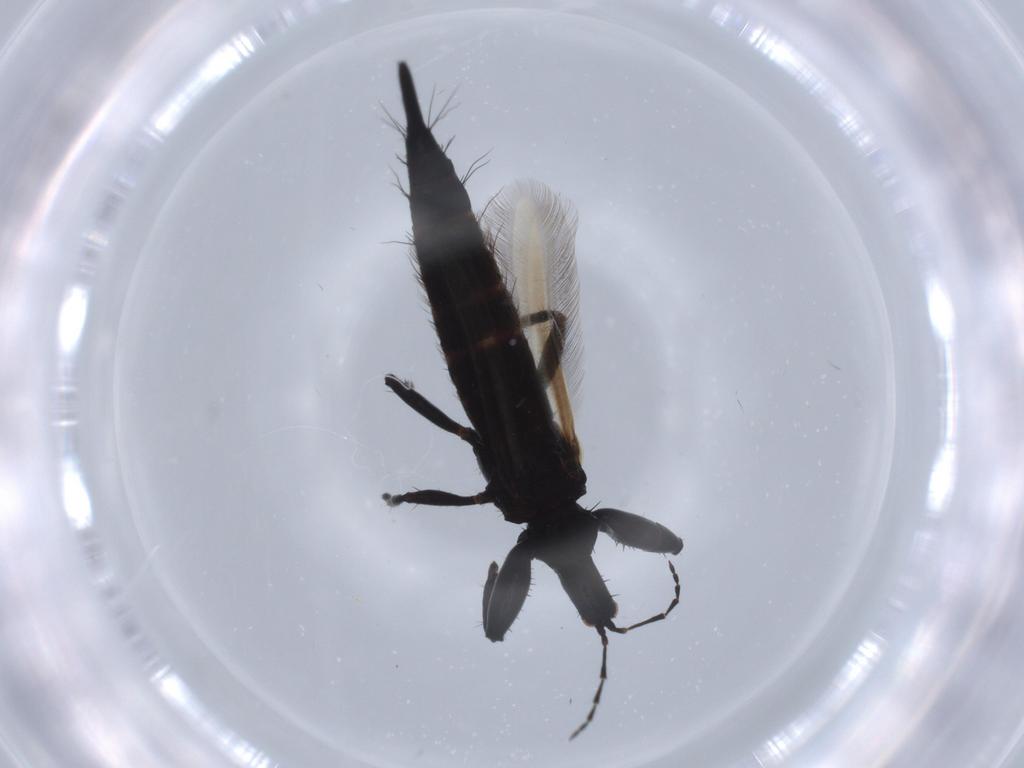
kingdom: Animalia
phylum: Arthropoda
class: Insecta
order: Thysanoptera
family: Phlaeothripidae
